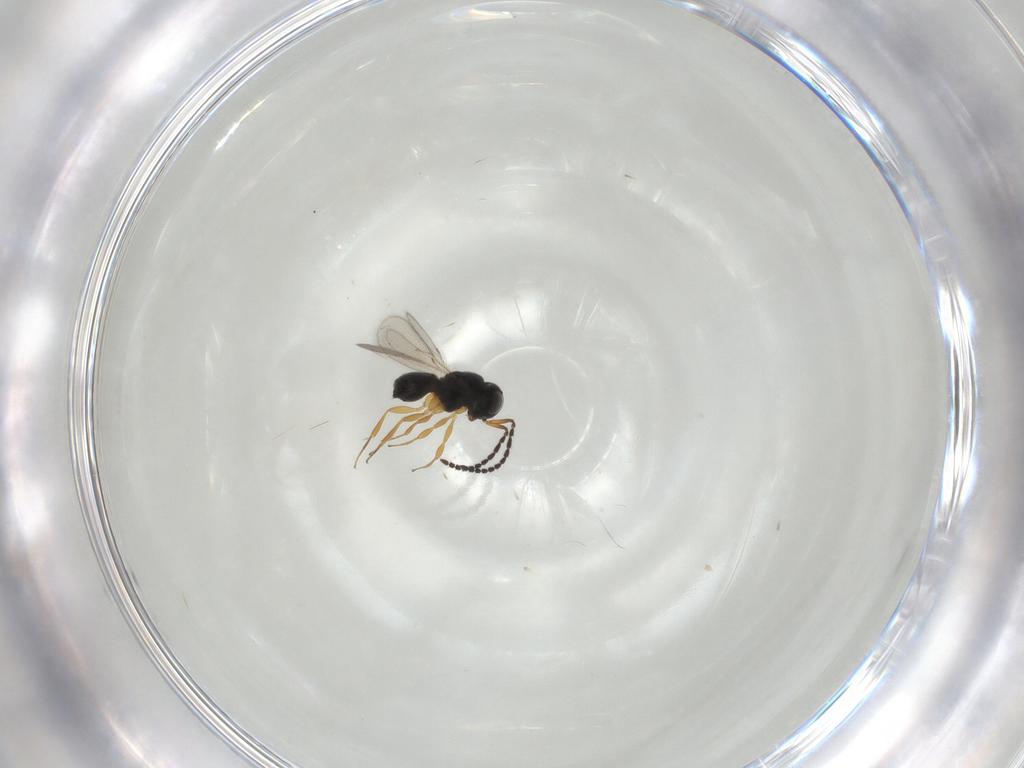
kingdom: Animalia
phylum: Arthropoda
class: Insecta
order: Hymenoptera
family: Scelionidae
